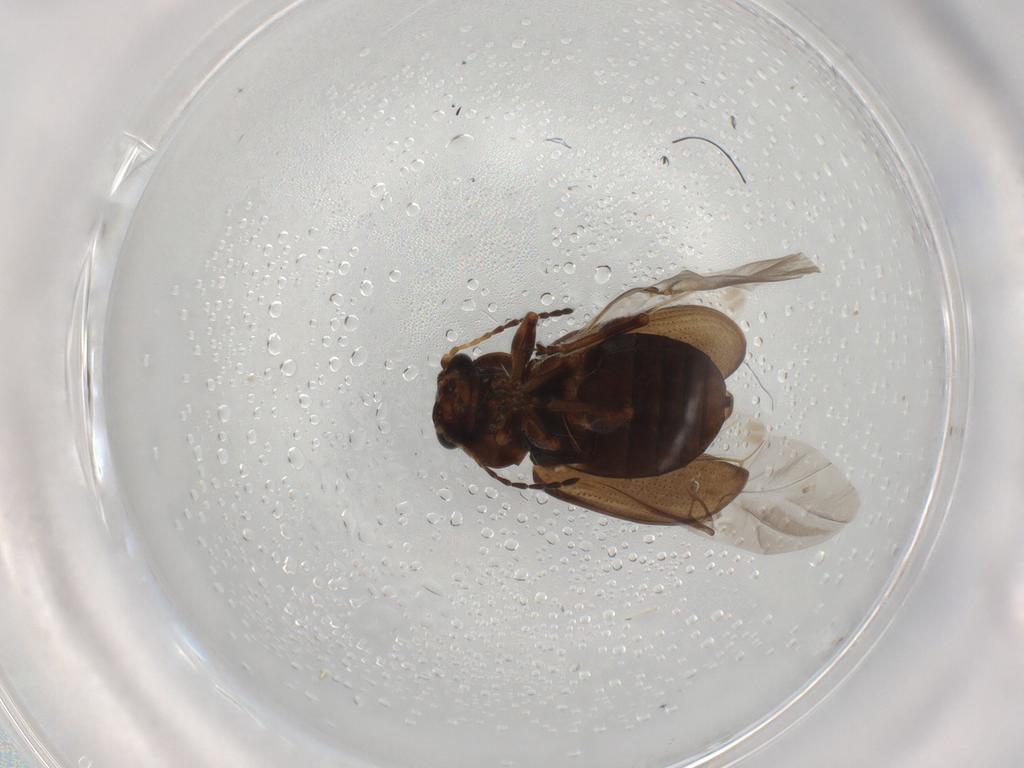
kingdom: Animalia
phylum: Arthropoda
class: Insecta
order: Coleoptera
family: Chrysomelidae
